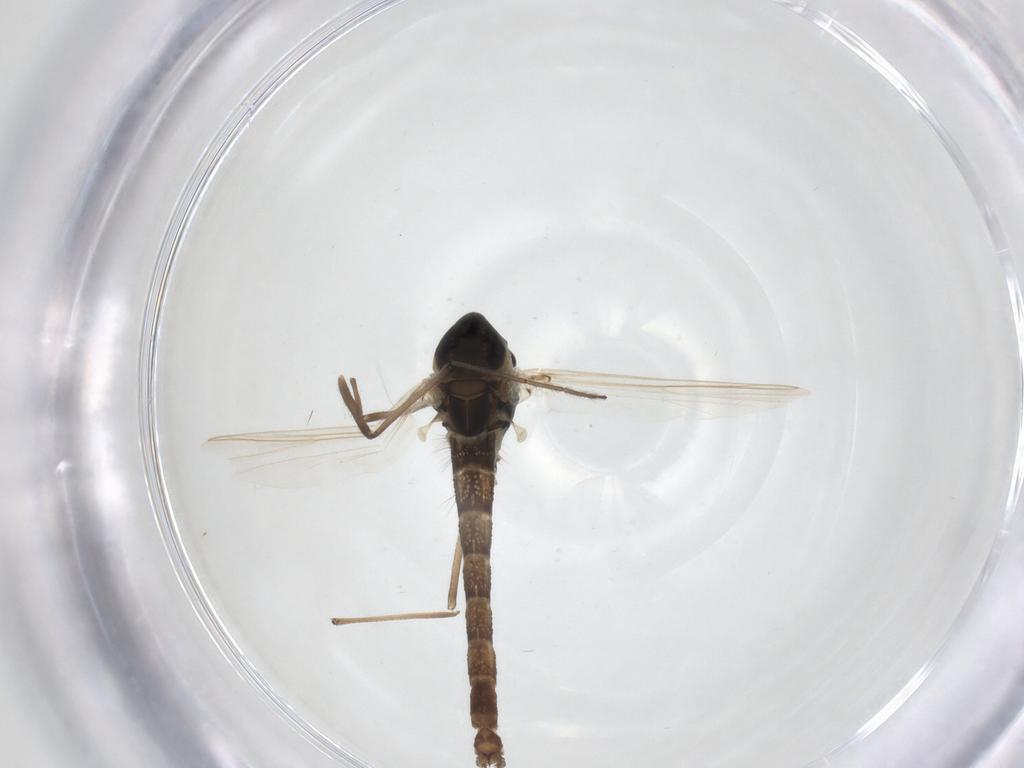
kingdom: Animalia
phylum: Arthropoda
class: Insecta
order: Diptera
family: Chironomidae
